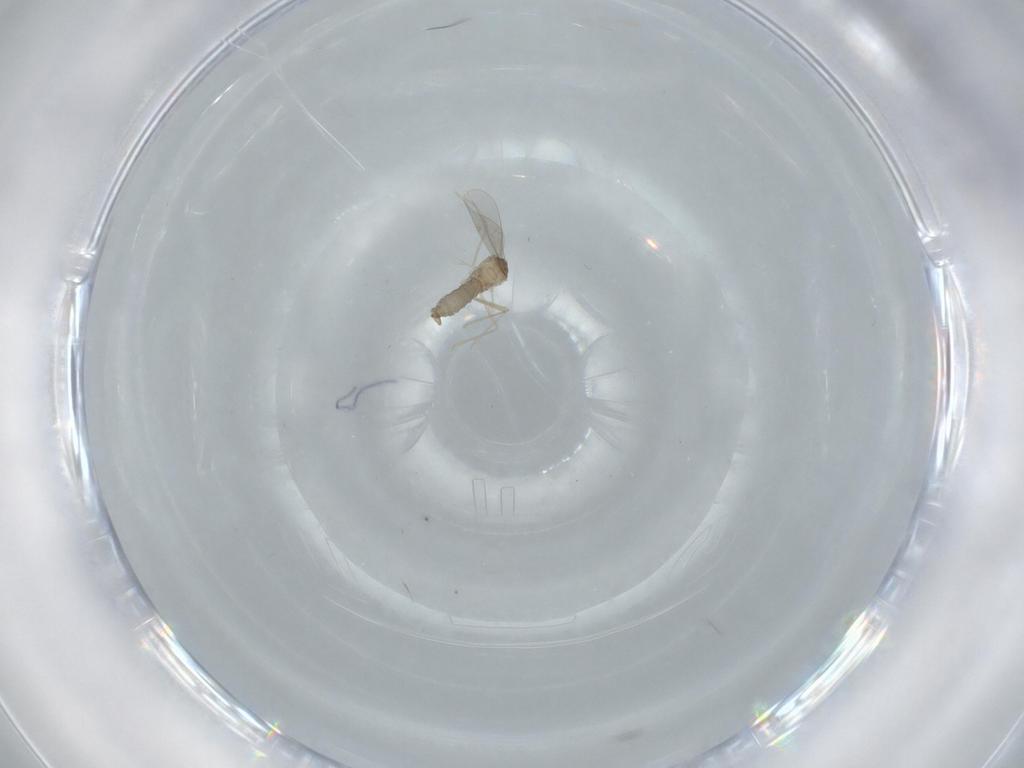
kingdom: Animalia
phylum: Arthropoda
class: Insecta
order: Diptera
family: Cecidomyiidae
